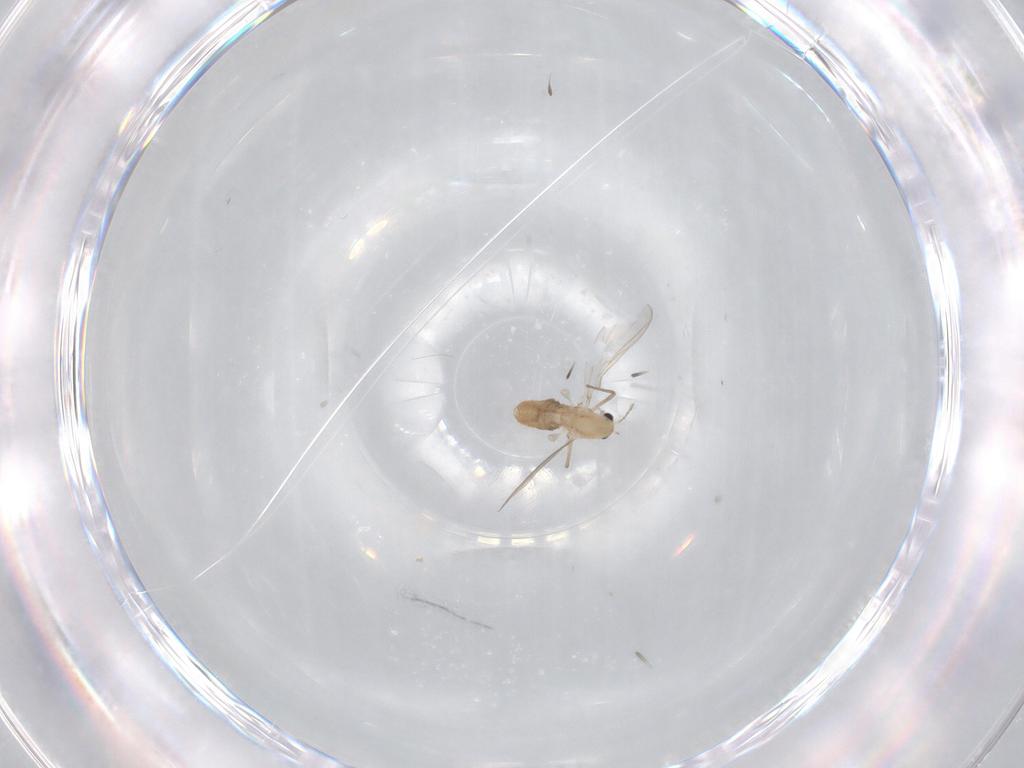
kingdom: Animalia
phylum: Arthropoda
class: Insecta
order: Diptera
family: Chironomidae
